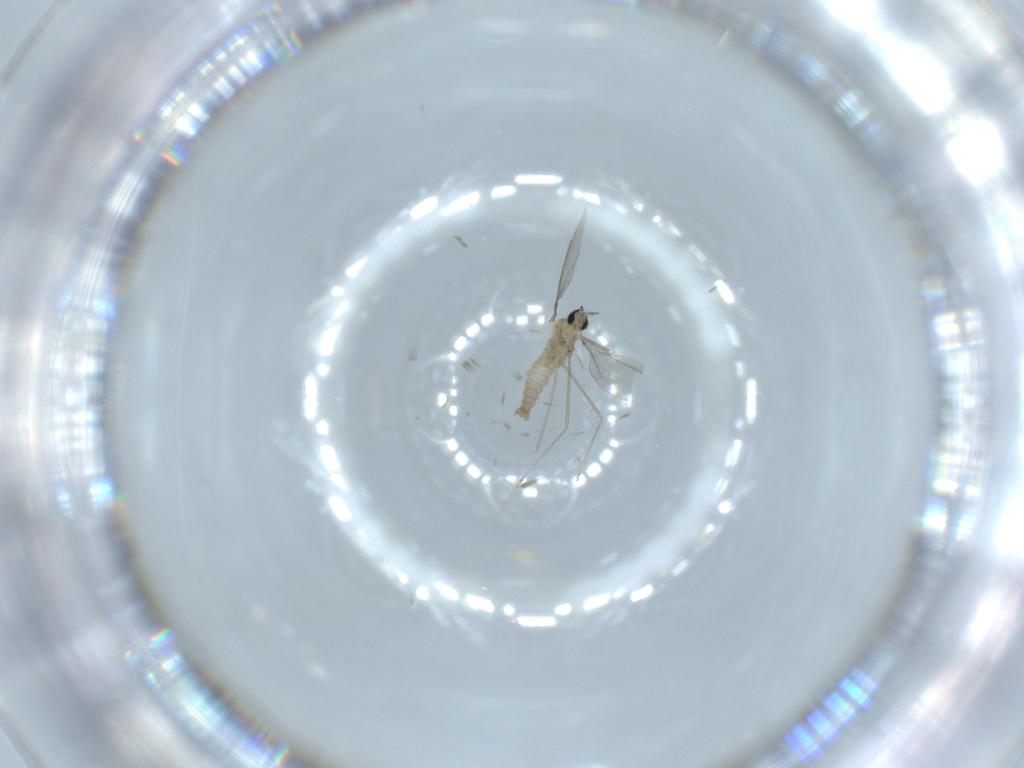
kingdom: Animalia
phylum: Arthropoda
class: Insecta
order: Diptera
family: Cecidomyiidae
